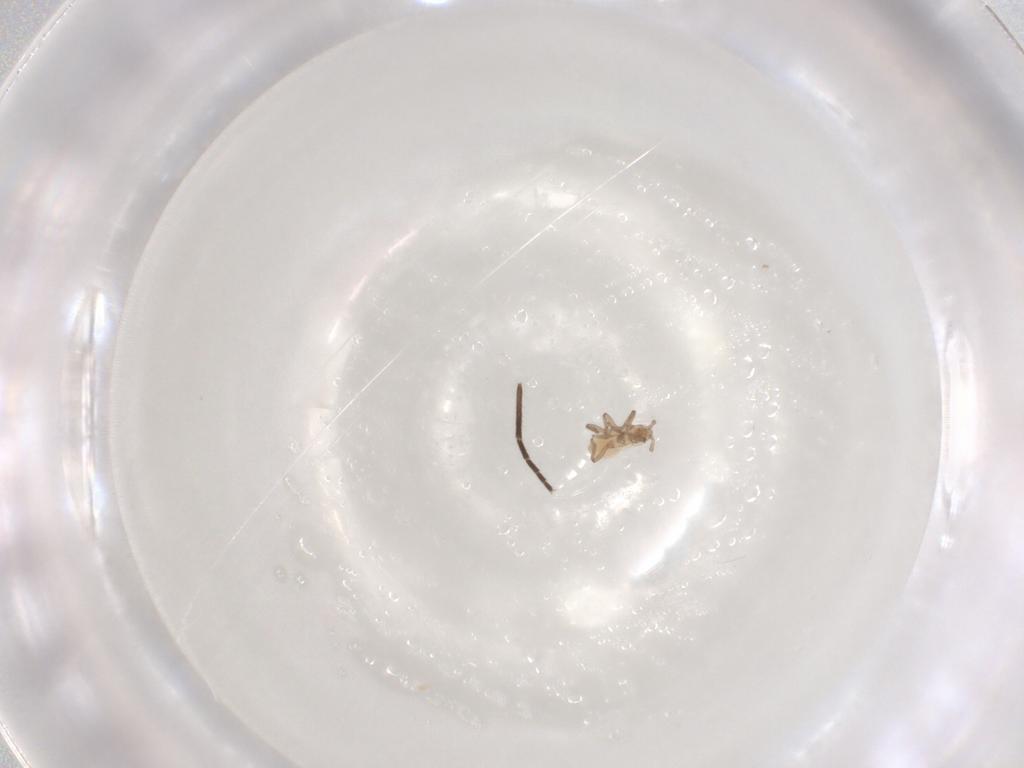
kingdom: Animalia
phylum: Arthropoda
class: Insecta
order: Hemiptera
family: Aphididae
